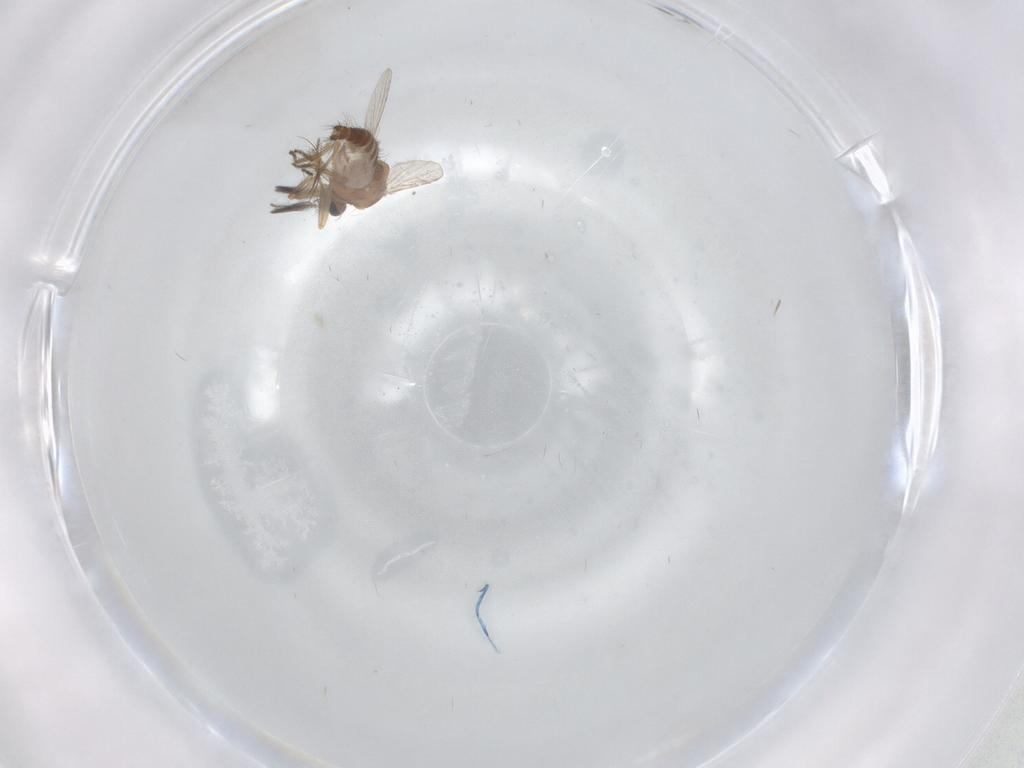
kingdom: Animalia
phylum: Arthropoda
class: Insecta
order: Diptera
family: Ceratopogonidae
